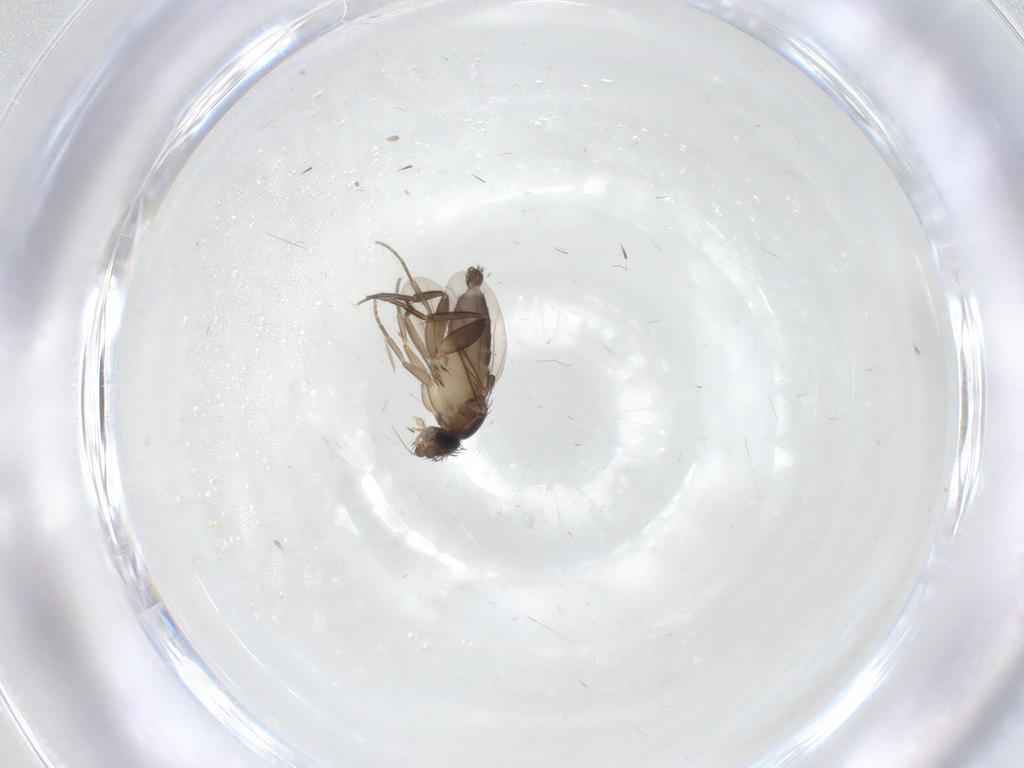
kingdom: Animalia
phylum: Arthropoda
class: Insecta
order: Diptera
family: Phoridae
